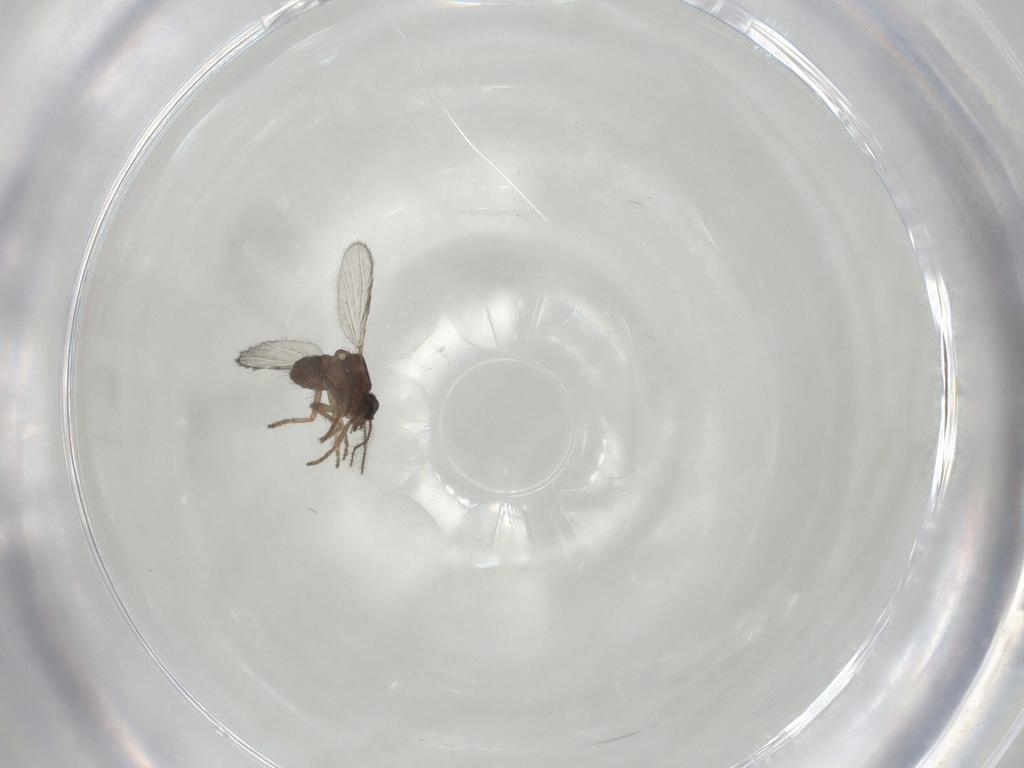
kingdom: Animalia
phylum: Arthropoda
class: Insecta
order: Diptera
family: Ceratopogonidae
